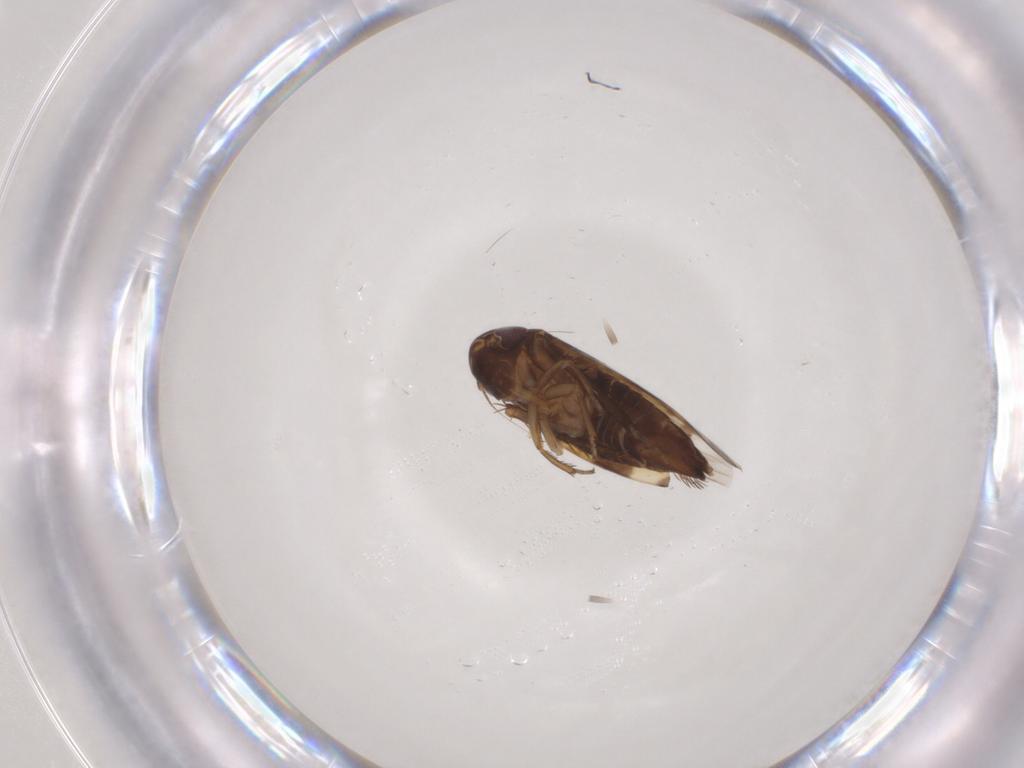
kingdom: Animalia
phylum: Arthropoda
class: Insecta
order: Hemiptera
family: Cicadellidae
